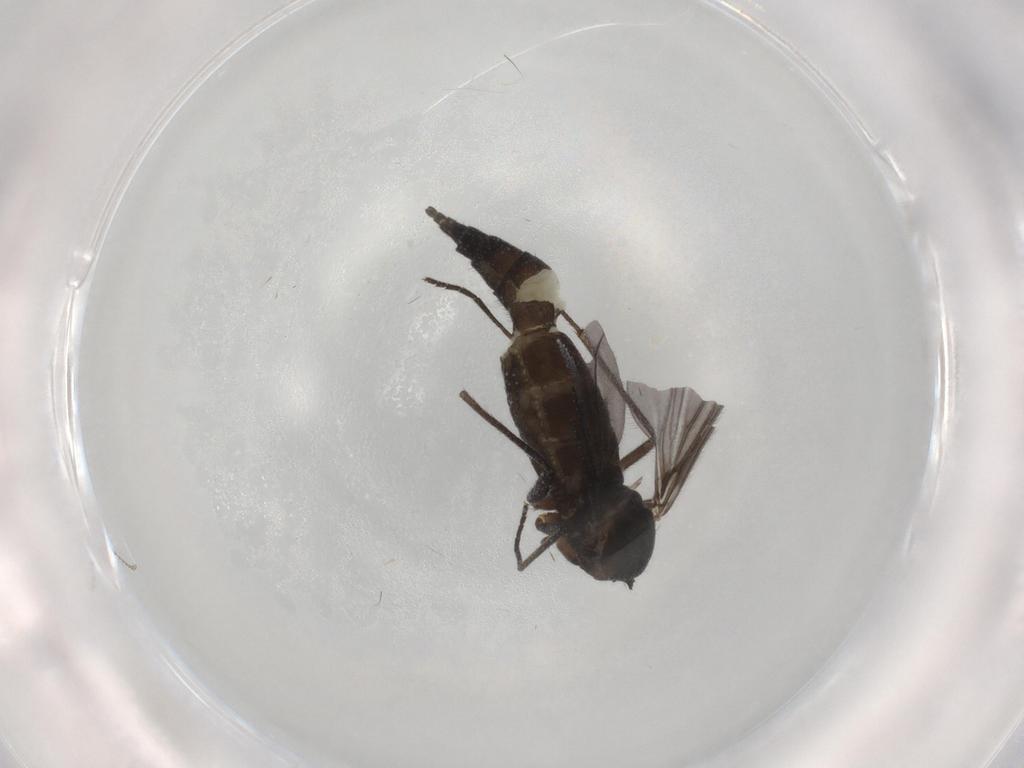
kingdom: Animalia
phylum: Arthropoda
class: Insecta
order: Diptera
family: Sciaridae
